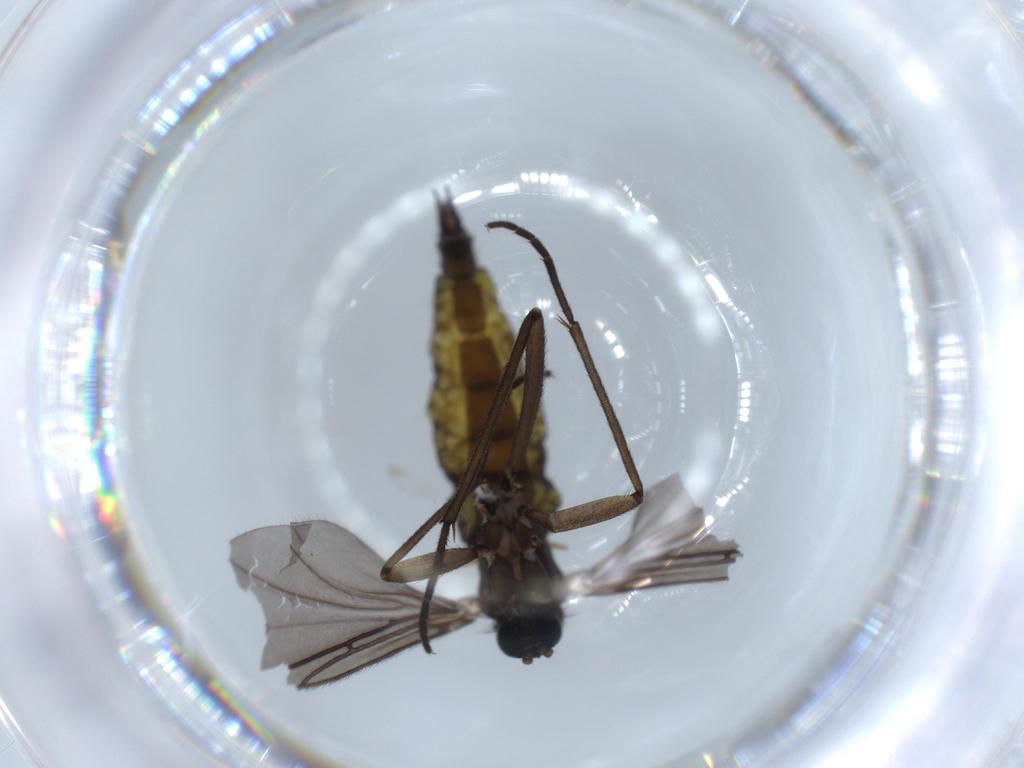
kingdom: Animalia
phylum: Arthropoda
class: Insecta
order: Diptera
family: Sciaridae
